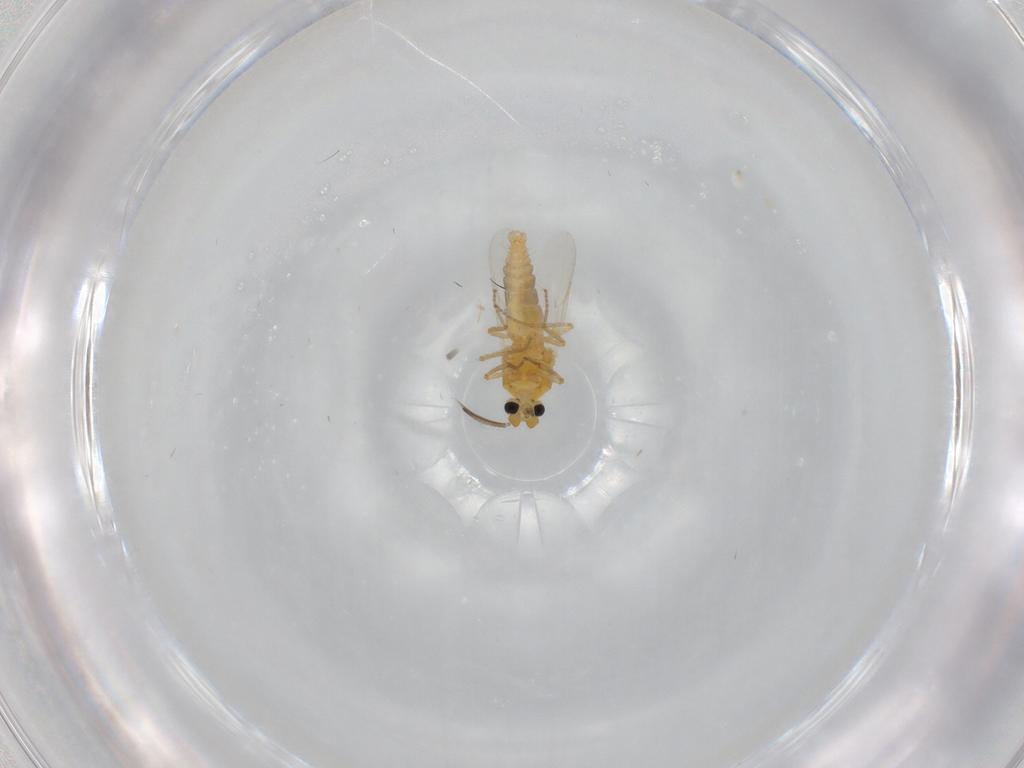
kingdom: Animalia
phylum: Arthropoda
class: Insecta
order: Diptera
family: Ceratopogonidae
